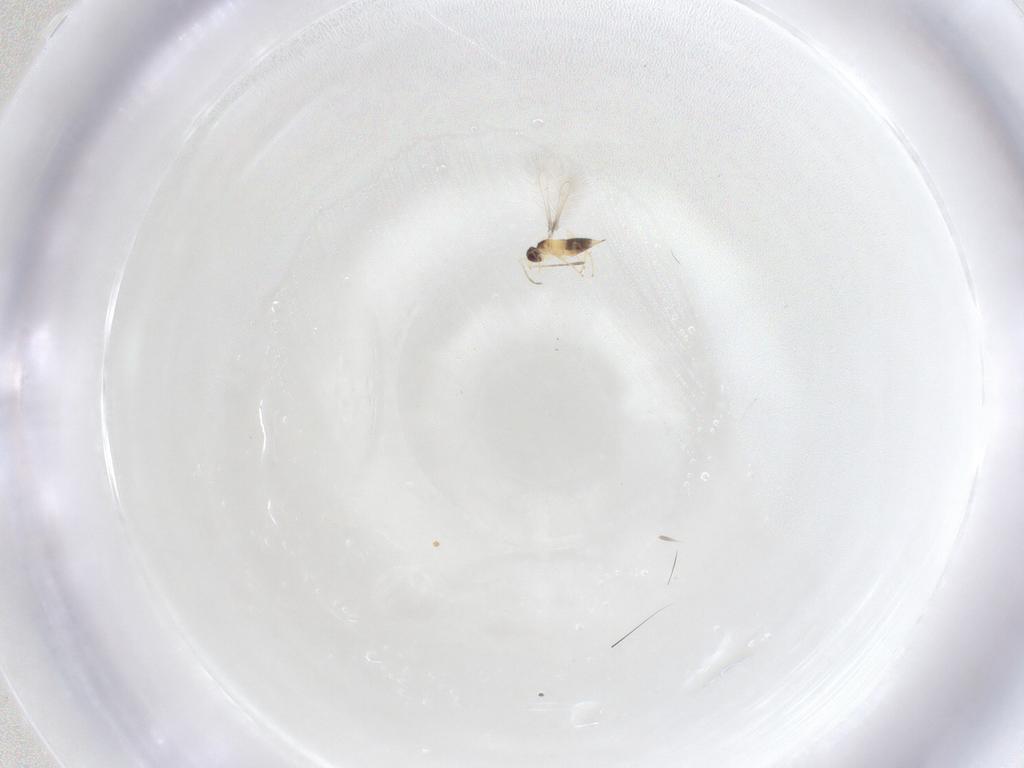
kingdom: Animalia
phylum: Arthropoda
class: Insecta
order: Hymenoptera
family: Mymaridae
